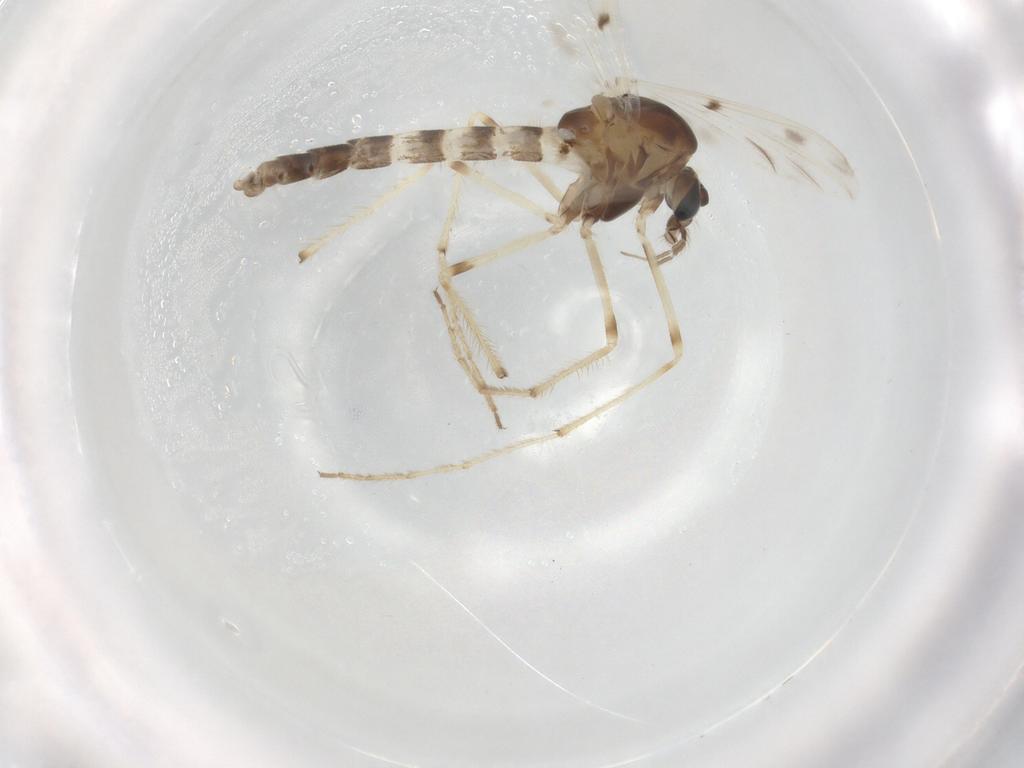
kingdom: Animalia
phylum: Arthropoda
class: Insecta
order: Diptera
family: Chironomidae
